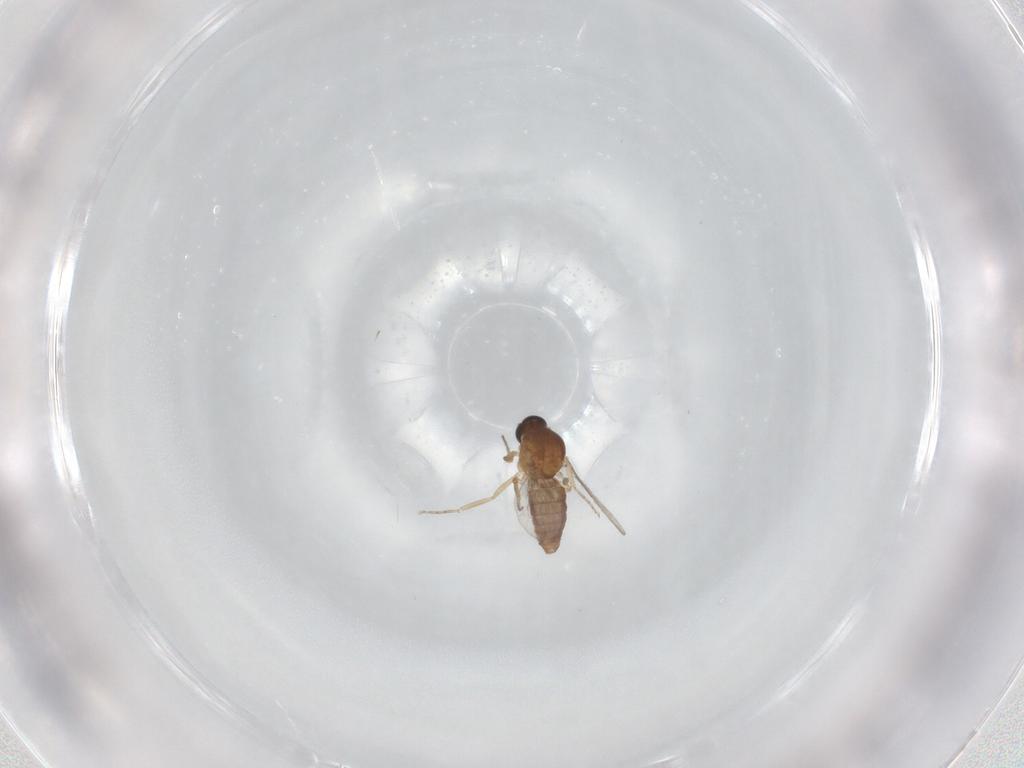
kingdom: Animalia
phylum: Arthropoda
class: Insecta
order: Diptera
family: Ceratopogonidae
